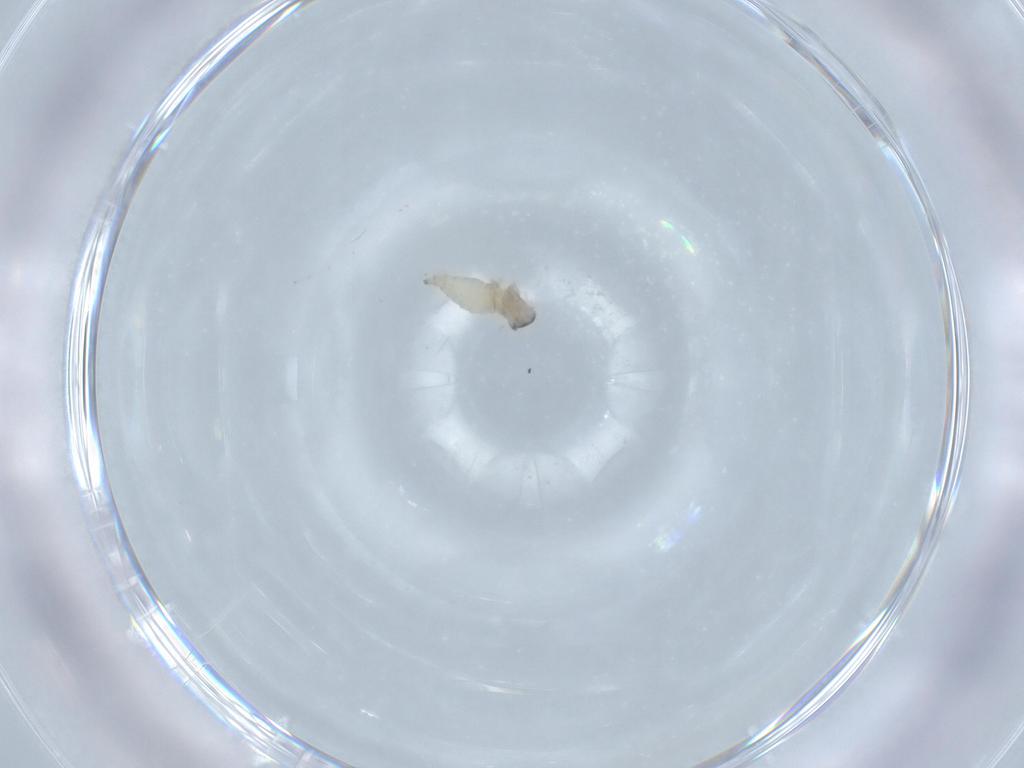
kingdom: Animalia
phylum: Arthropoda
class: Insecta
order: Diptera
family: Cecidomyiidae
